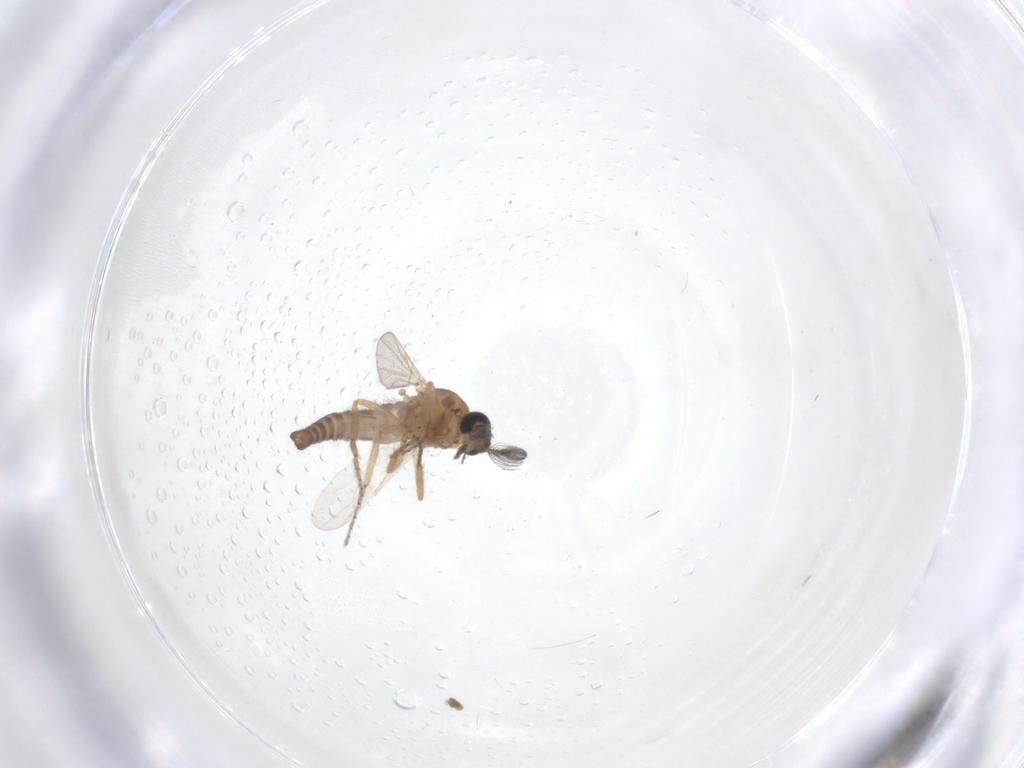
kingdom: Animalia
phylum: Arthropoda
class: Insecta
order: Diptera
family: Ceratopogonidae
